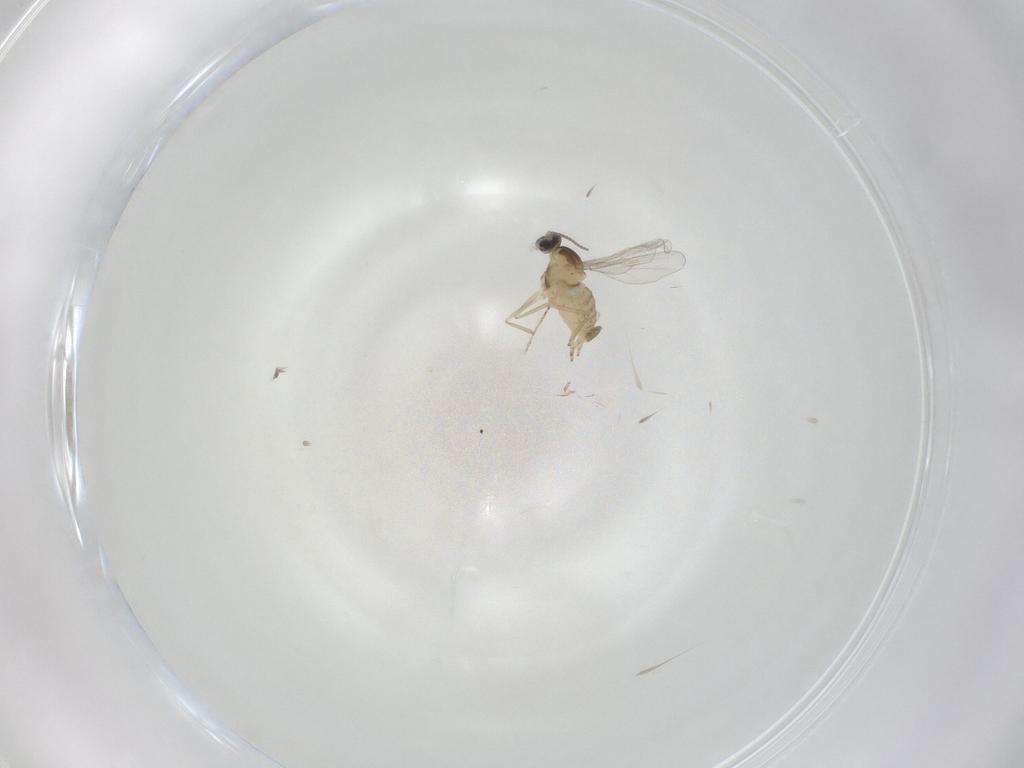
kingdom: Animalia
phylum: Arthropoda
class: Insecta
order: Diptera
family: Cecidomyiidae
